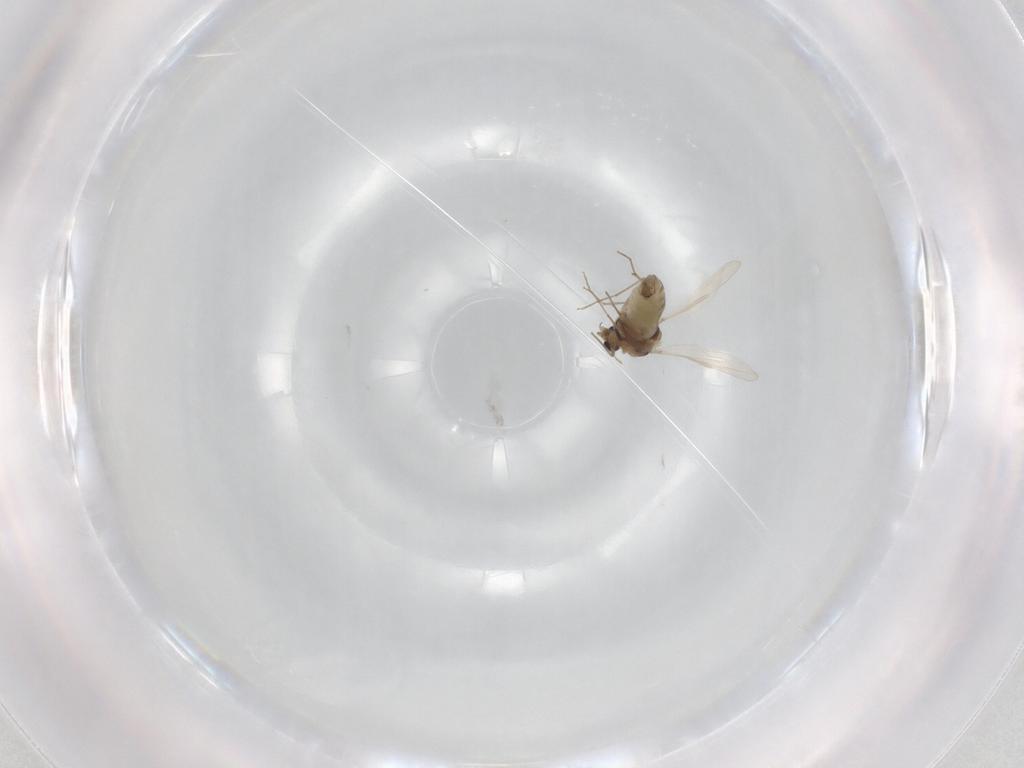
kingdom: Animalia
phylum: Arthropoda
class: Insecta
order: Diptera
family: Chironomidae
